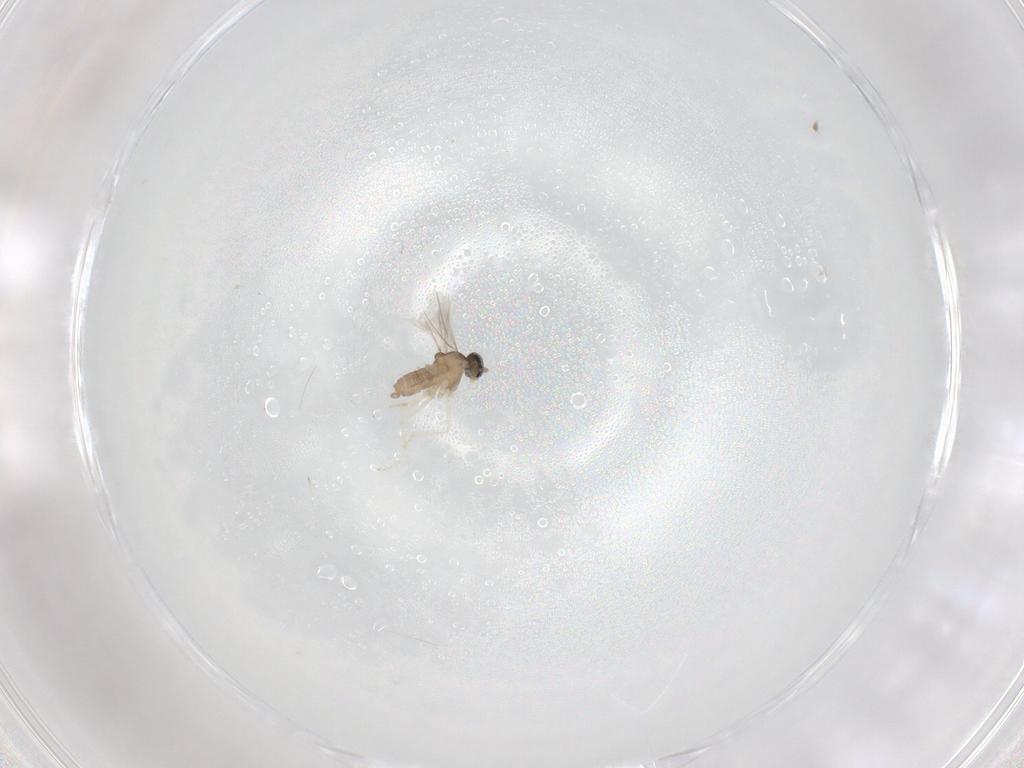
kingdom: Animalia
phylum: Arthropoda
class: Insecta
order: Diptera
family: Cecidomyiidae
